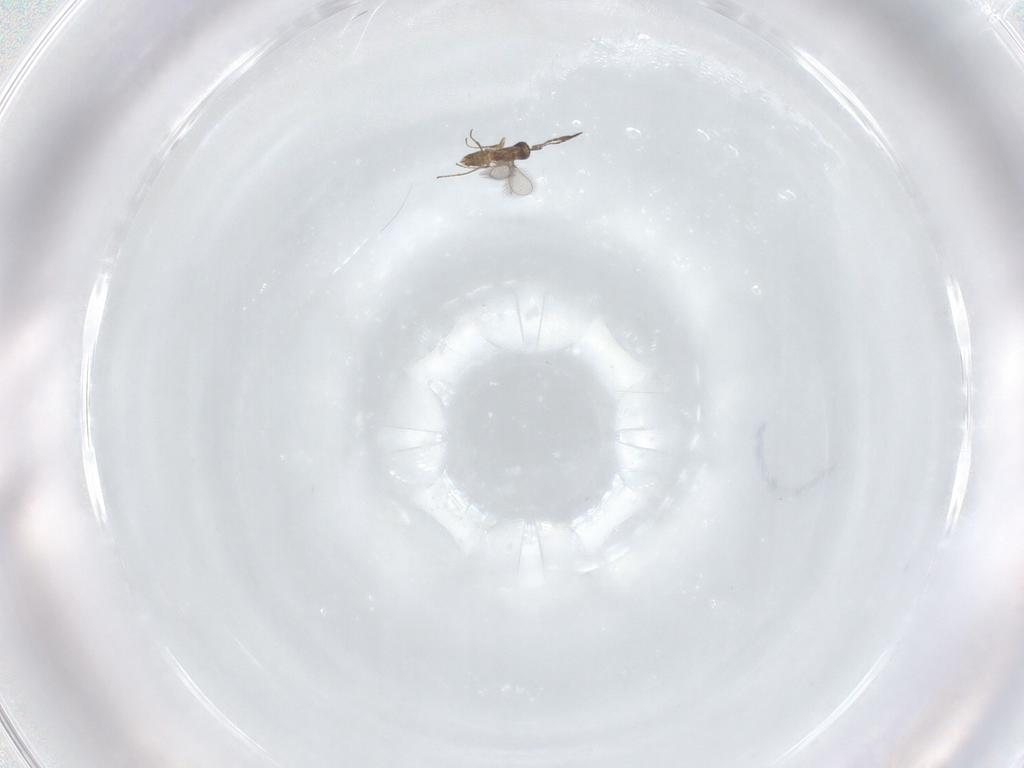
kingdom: Animalia
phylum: Arthropoda
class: Insecta
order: Hymenoptera
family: Mymaridae
